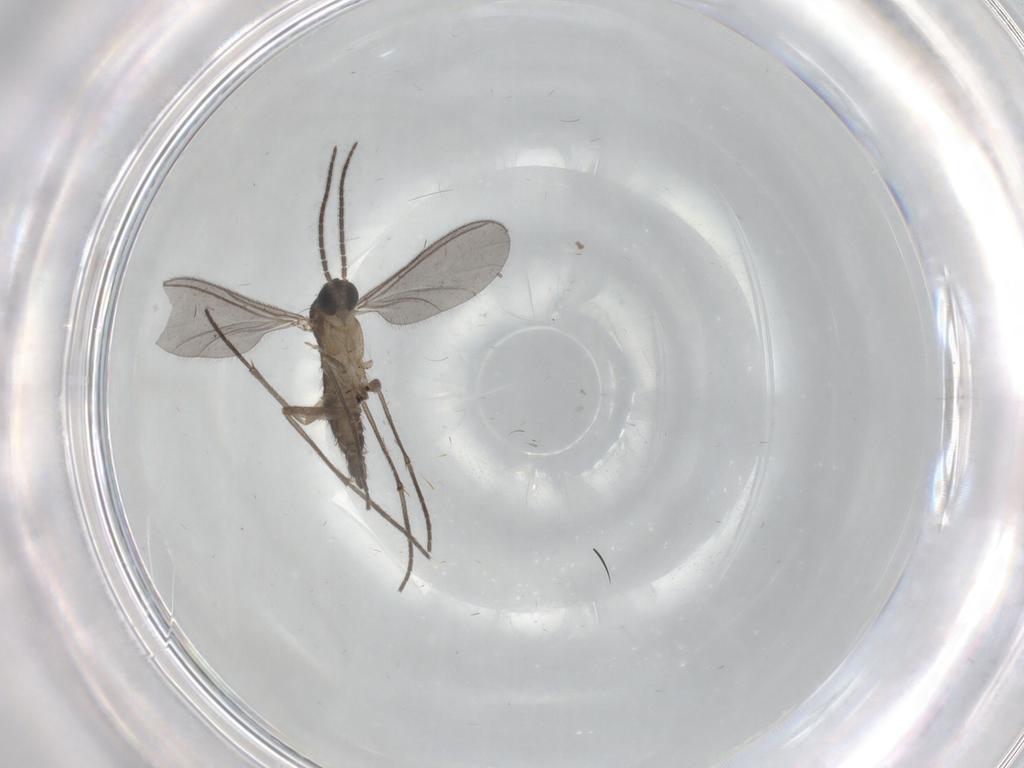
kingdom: Animalia
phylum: Arthropoda
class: Insecta
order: Diptera
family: Sciaridae
